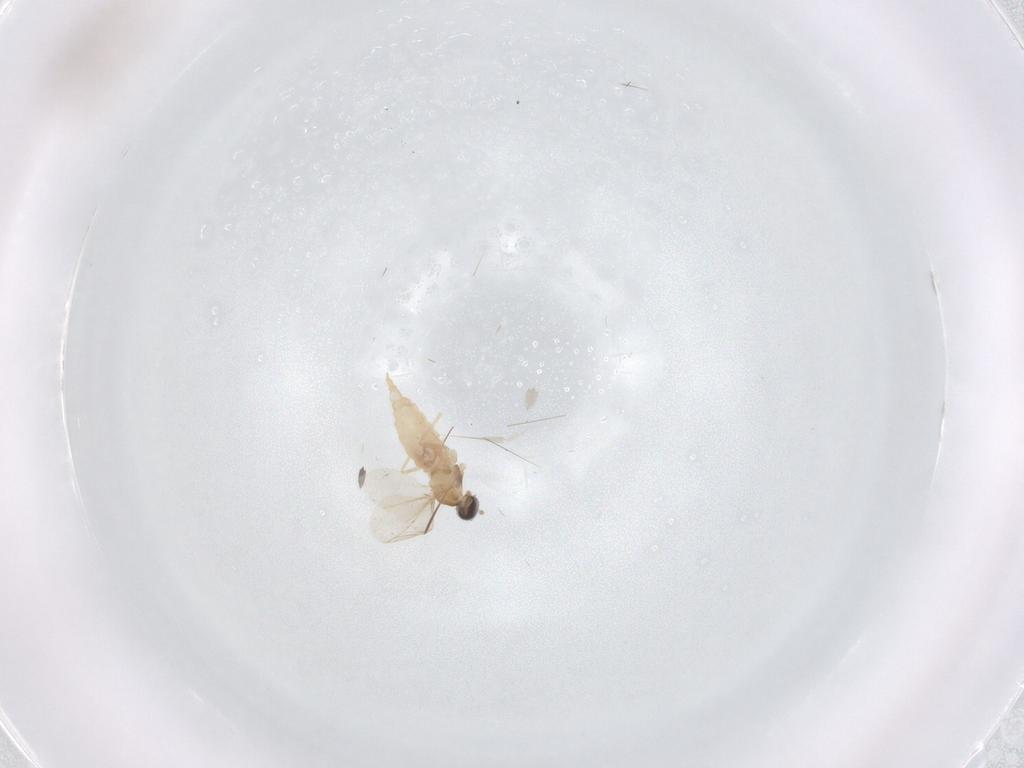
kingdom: Animalia
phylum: Arthropoda
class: Insecta
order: Diptera
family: Cecidomyiidae
